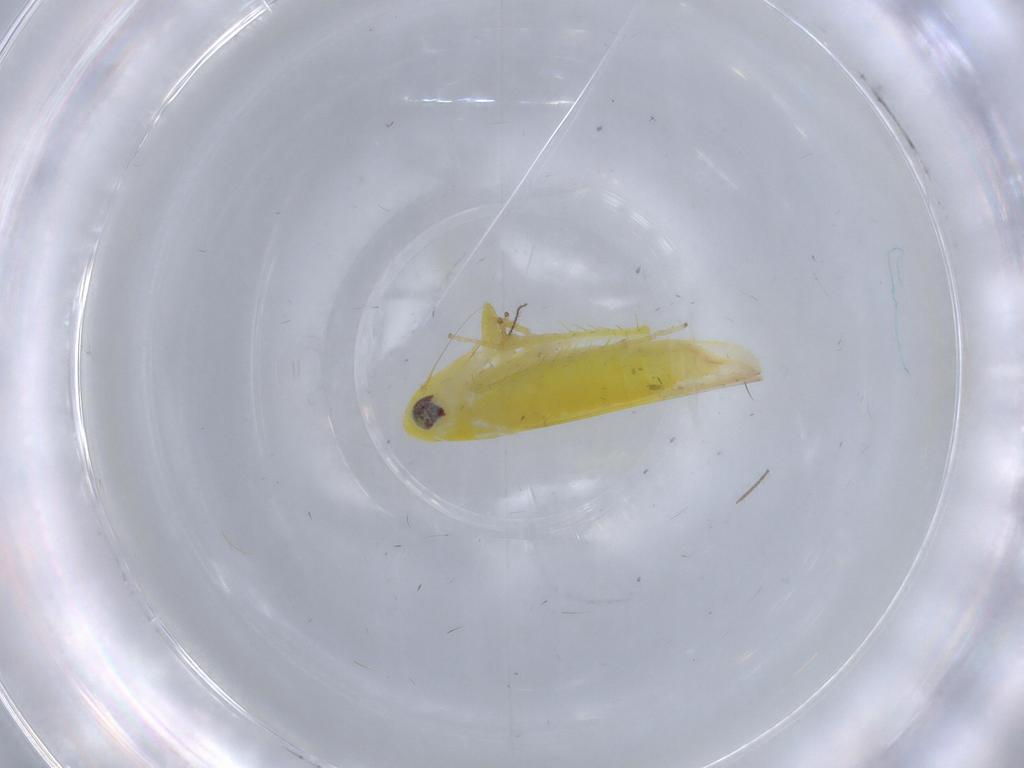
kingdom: Animalia
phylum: Arthropoda
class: Insecta
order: Hemiptera
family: Cicadellidae
